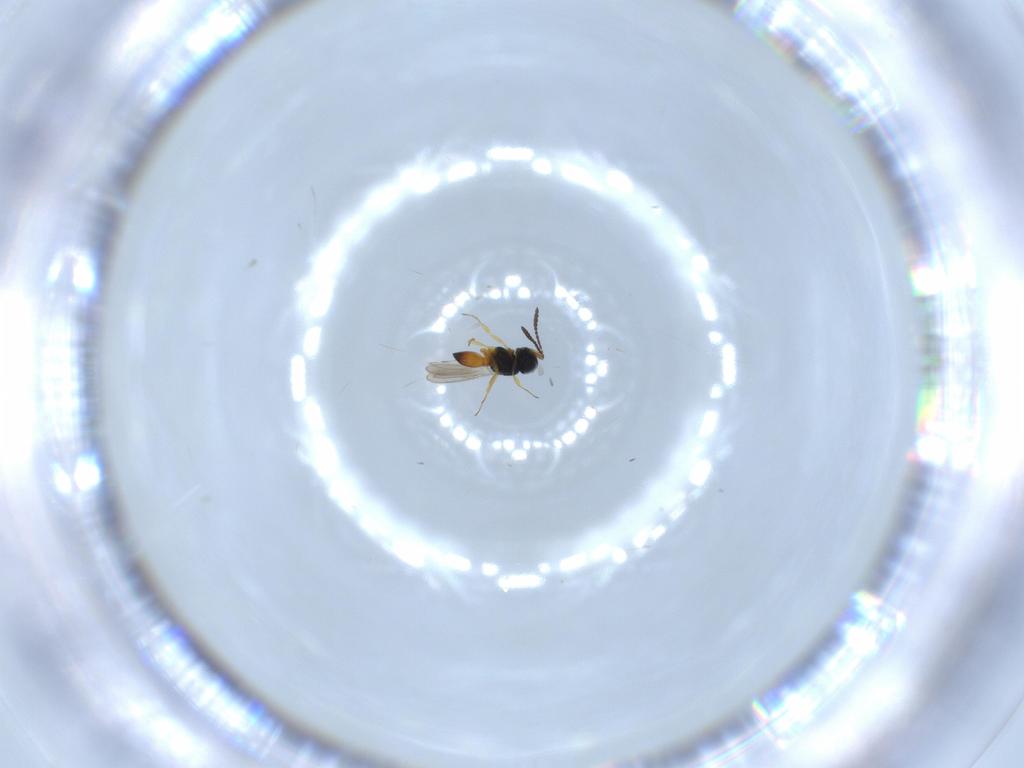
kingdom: Animalia
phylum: Arthropoda
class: Insecta
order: Hymenoptera
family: Scelionidae
